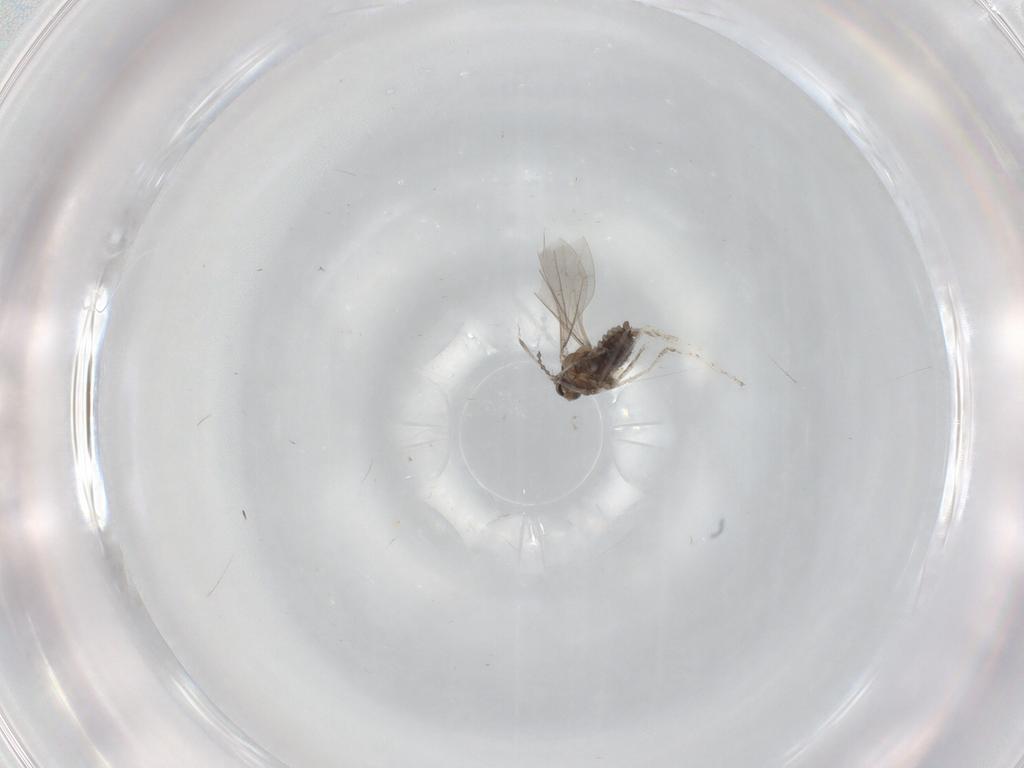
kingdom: Animalia
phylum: Arthropoda
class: Insecta
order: Diptera
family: Cecidomyiidae
